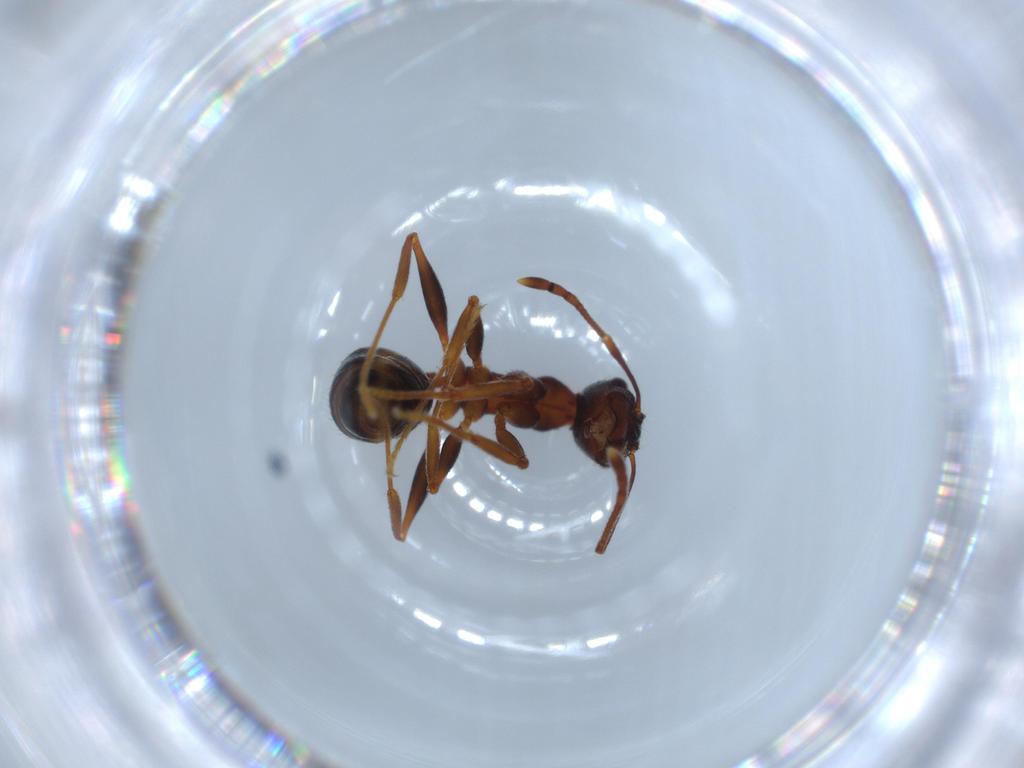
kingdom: Animalia
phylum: Arthropoda
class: Insecta
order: Hymenoptera
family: Formicidae
